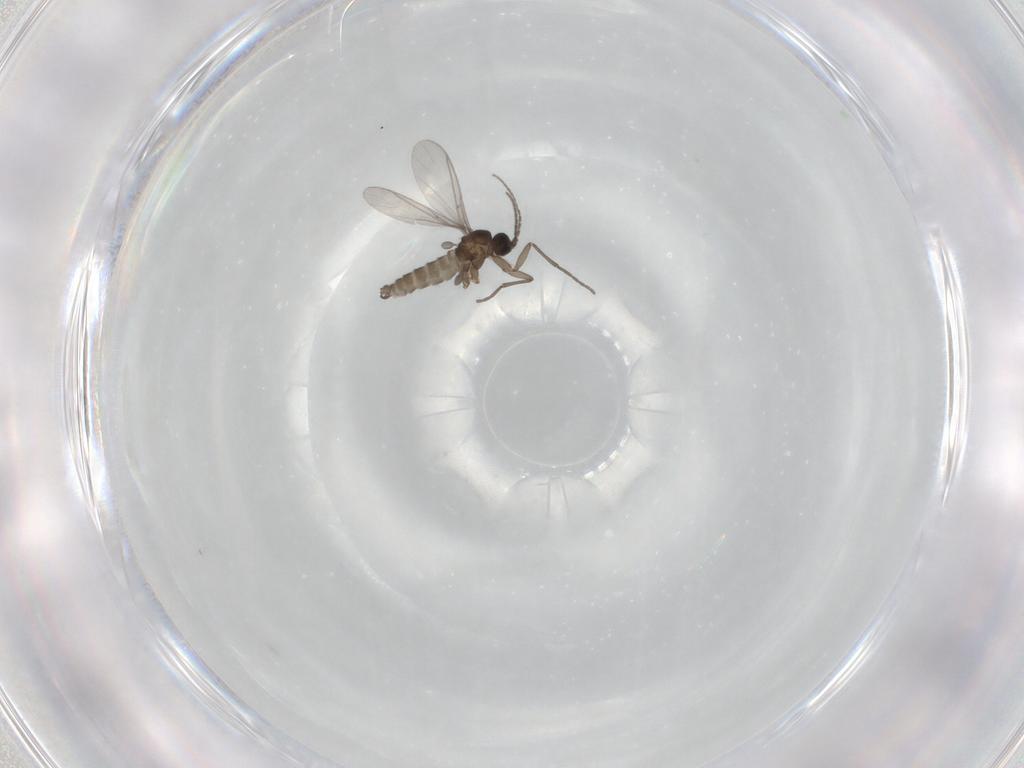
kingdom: Animalia
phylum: Arthropoda
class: Insecta
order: Diptera
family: Sciaridae
